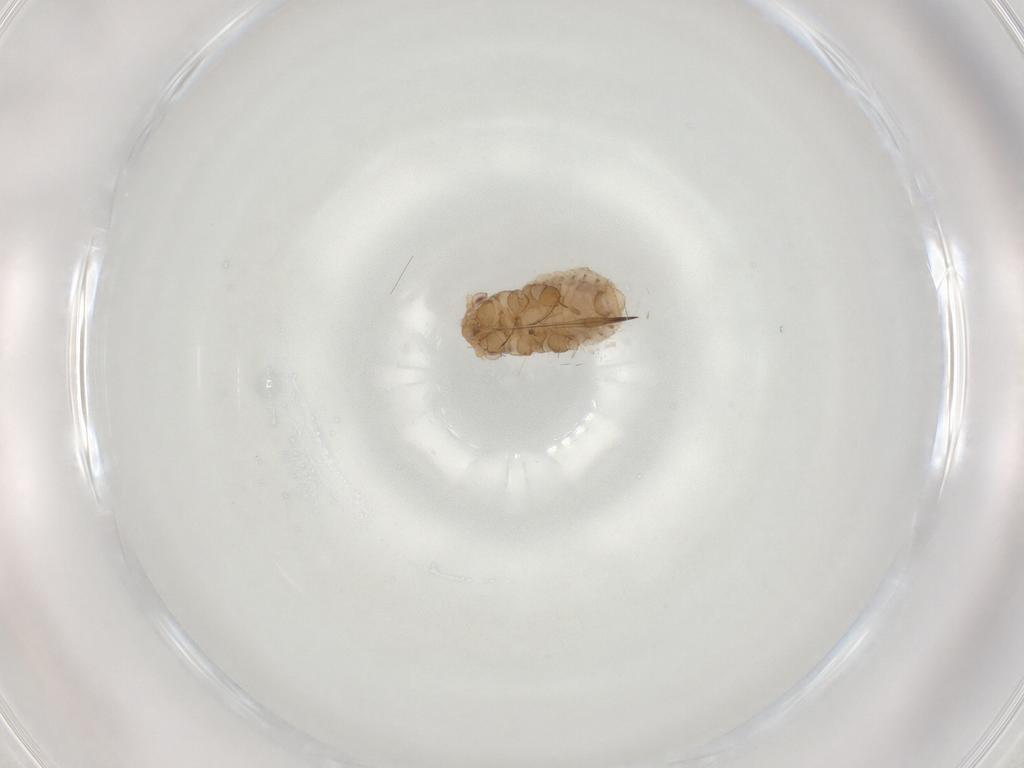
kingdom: Animalia
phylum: Arthropoda
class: Insecta
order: Hemiptera
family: Aphididae
